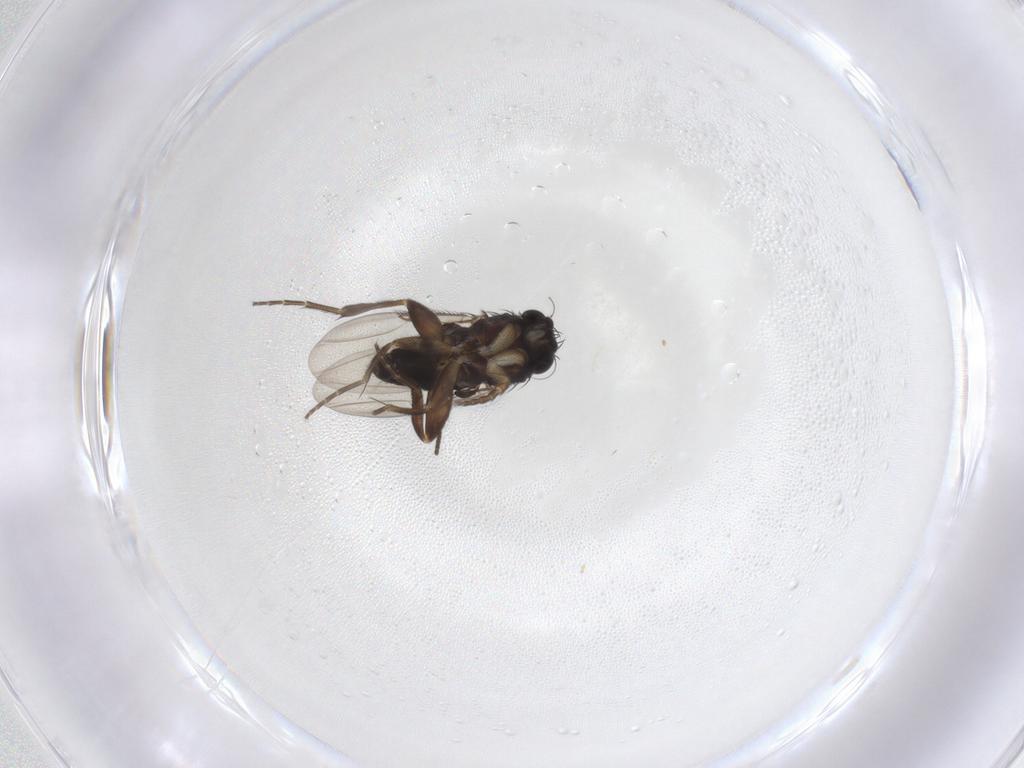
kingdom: Animalia
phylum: Arthropoda
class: Insecta
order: Diptera
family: Phoridae
